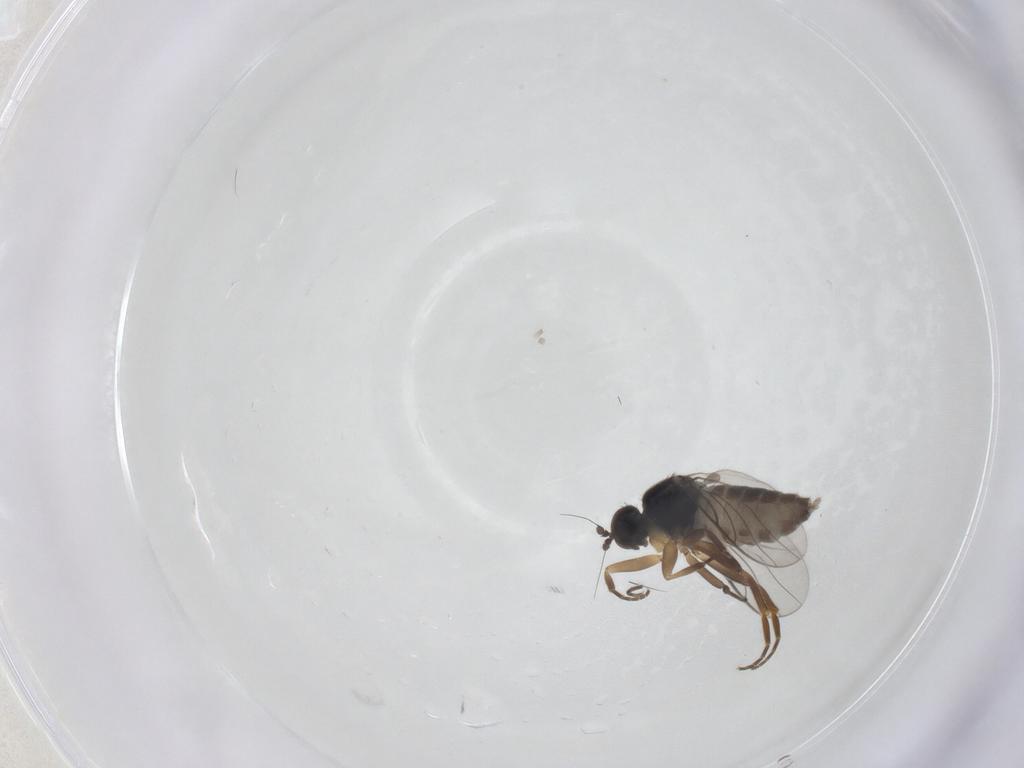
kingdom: Animalia
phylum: Arthropoda
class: Insecta
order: Diptera
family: Hybotidae
